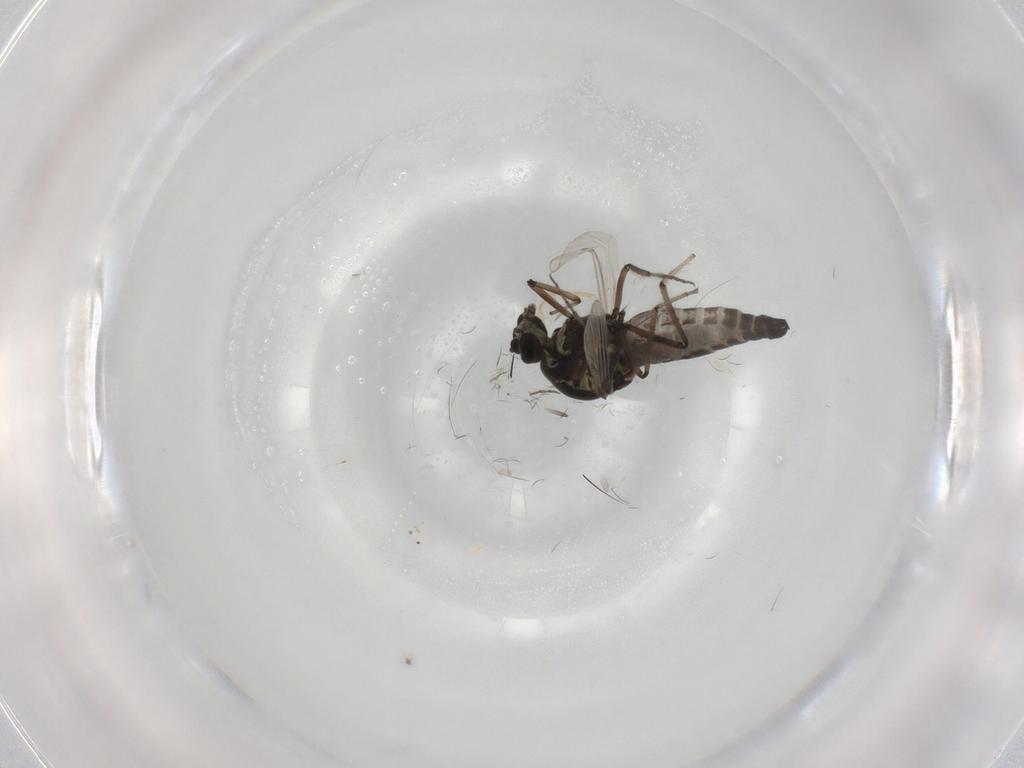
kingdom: Animalia
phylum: Arthropoda
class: Insecta
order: Diptera
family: Ceratopogonidae
